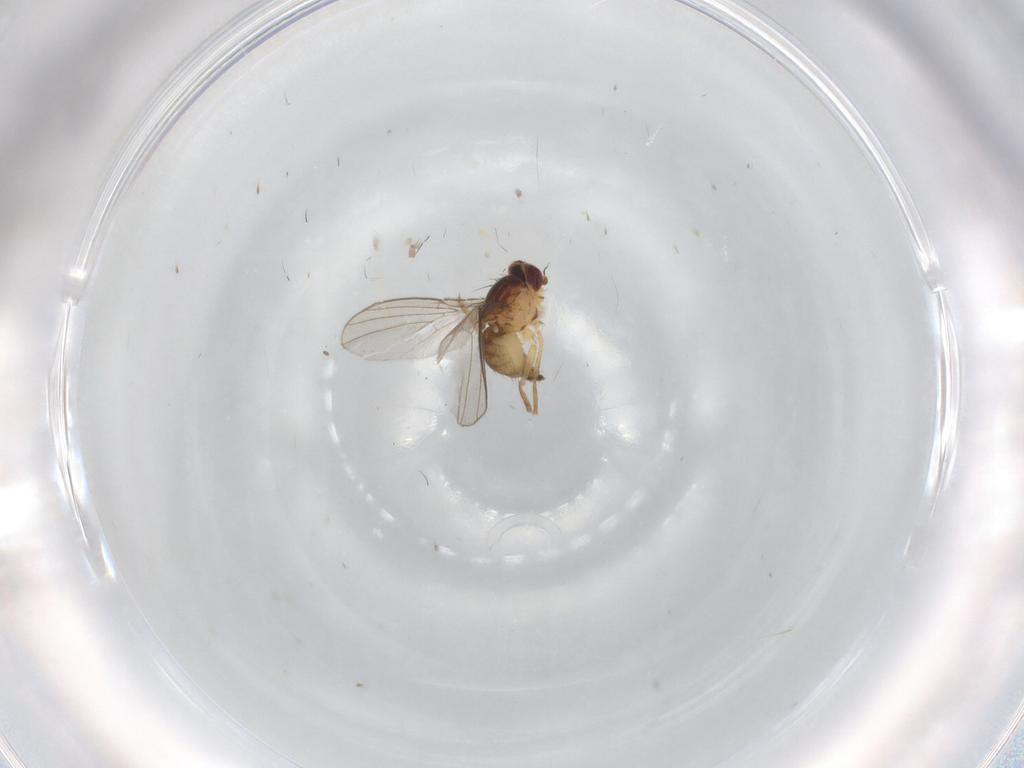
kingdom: Animalia
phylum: Arthropoda
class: Insecta
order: Diptera
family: Agromyzidae
